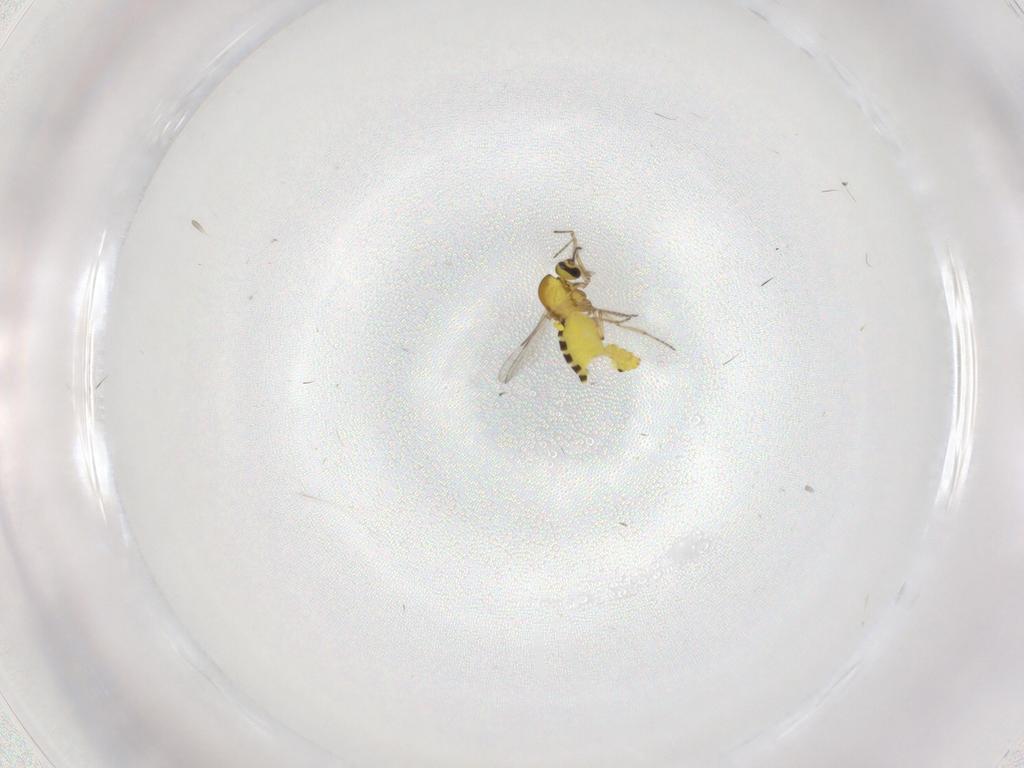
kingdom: Animalia
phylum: Arthropoda
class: Insecta
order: Diptera
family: Ceratopogonidae
